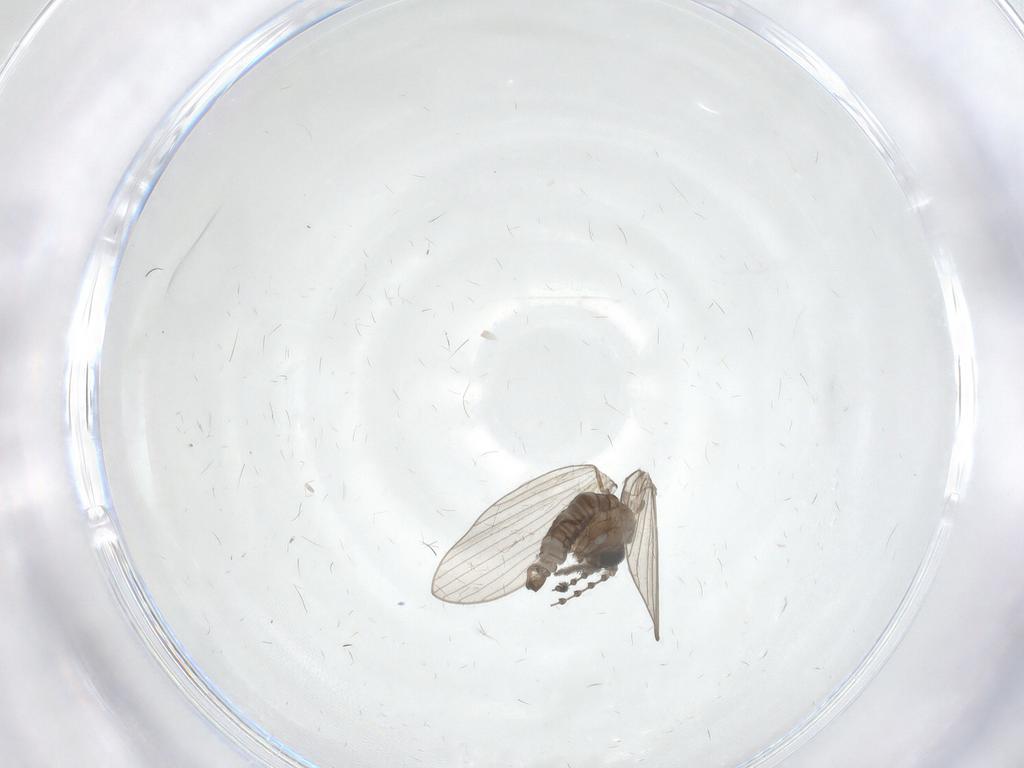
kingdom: Animalia
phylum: Arthropoda
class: Insecta
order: Diptera
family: Psychodidae
